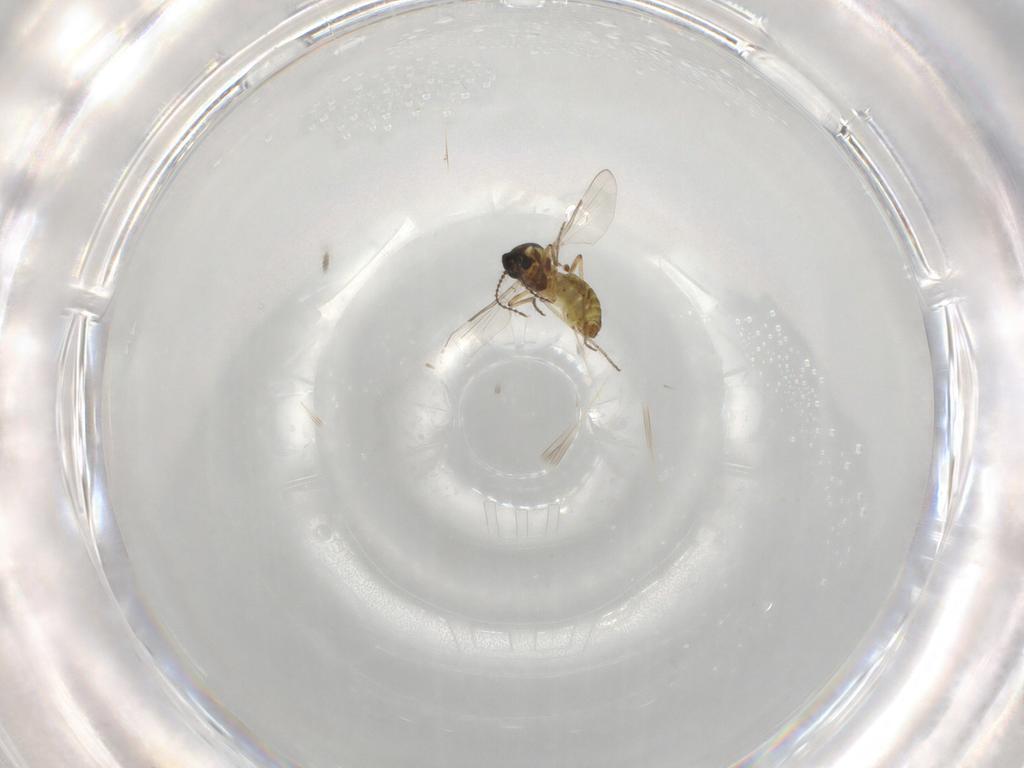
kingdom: Animalia
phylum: Arthropoda
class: Insecta
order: Diptera
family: Ceratopogonidae
